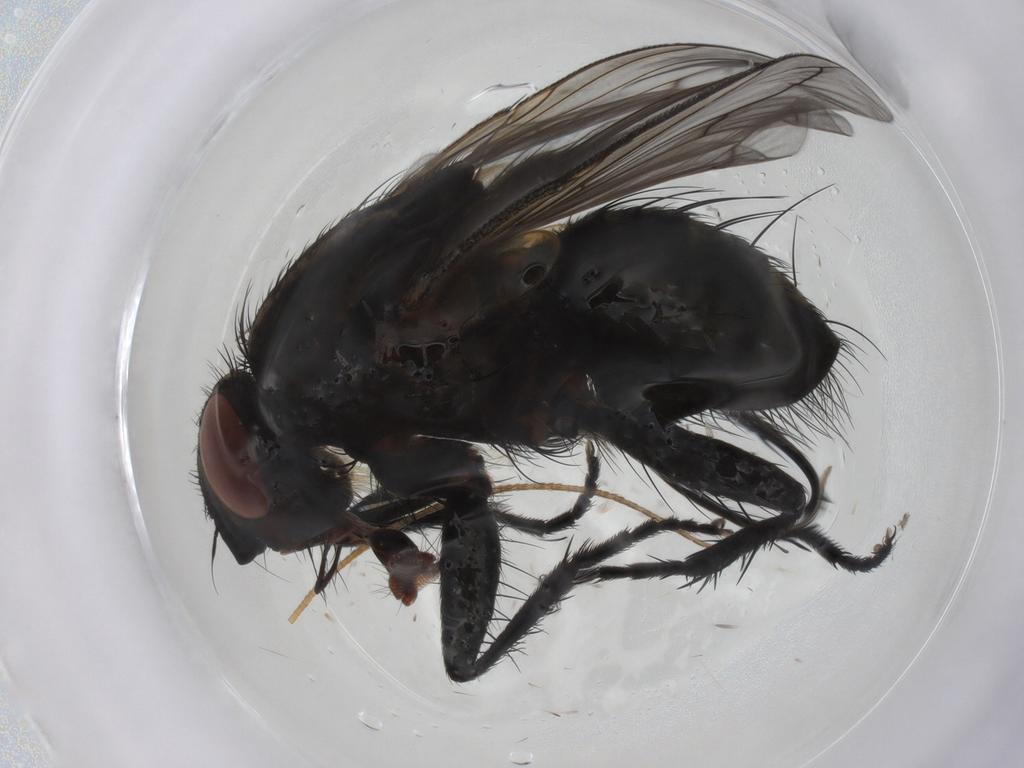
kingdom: Animalia
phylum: Arthropoda
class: Insecta
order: Diptera
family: Tachinidae
